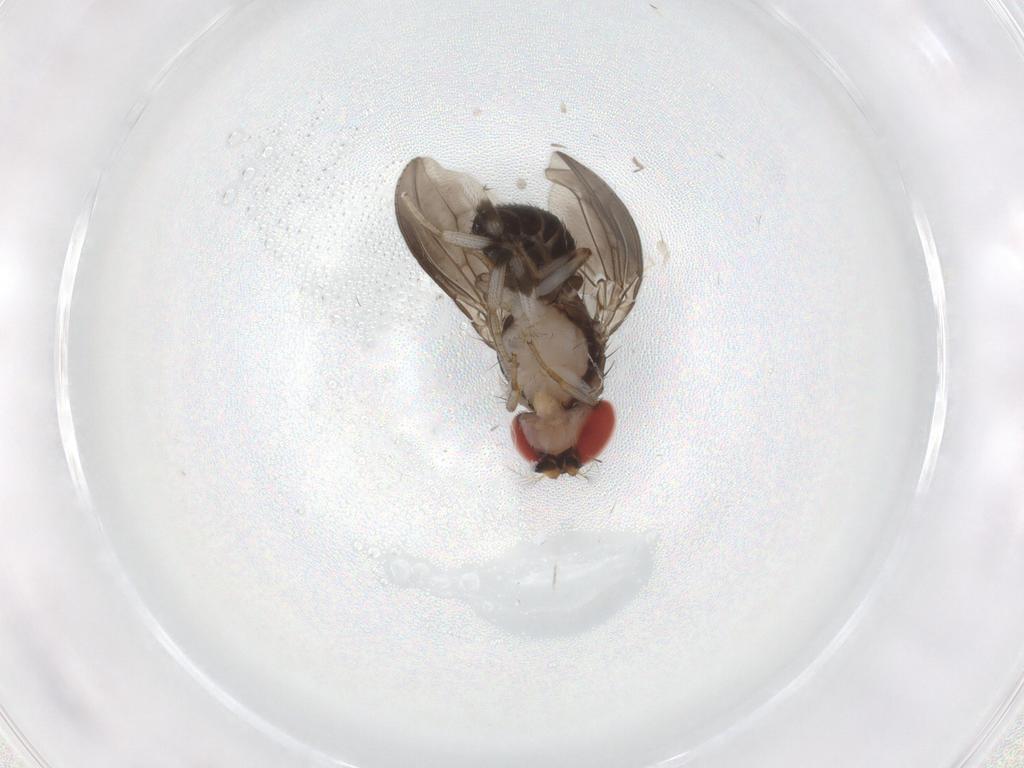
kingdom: Animalia
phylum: Arthropoda
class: Insecta
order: Diptera
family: Drosophilidae
